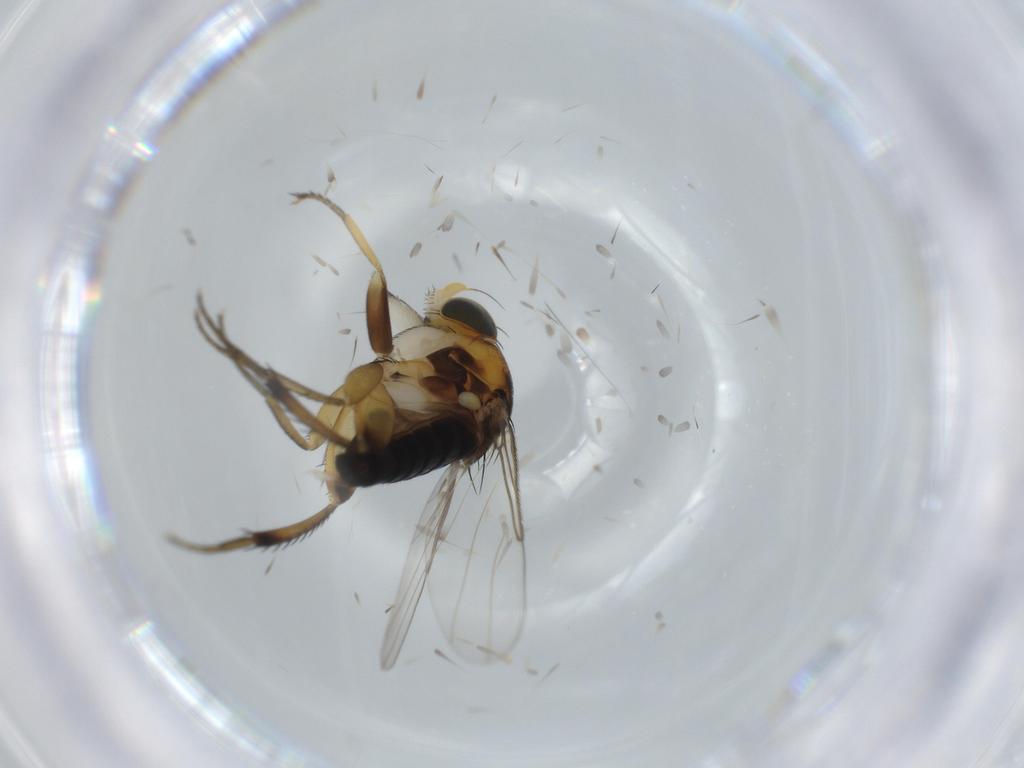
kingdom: Animalia
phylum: Arthropoda
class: Insecta
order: Diptera
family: Phoridae
